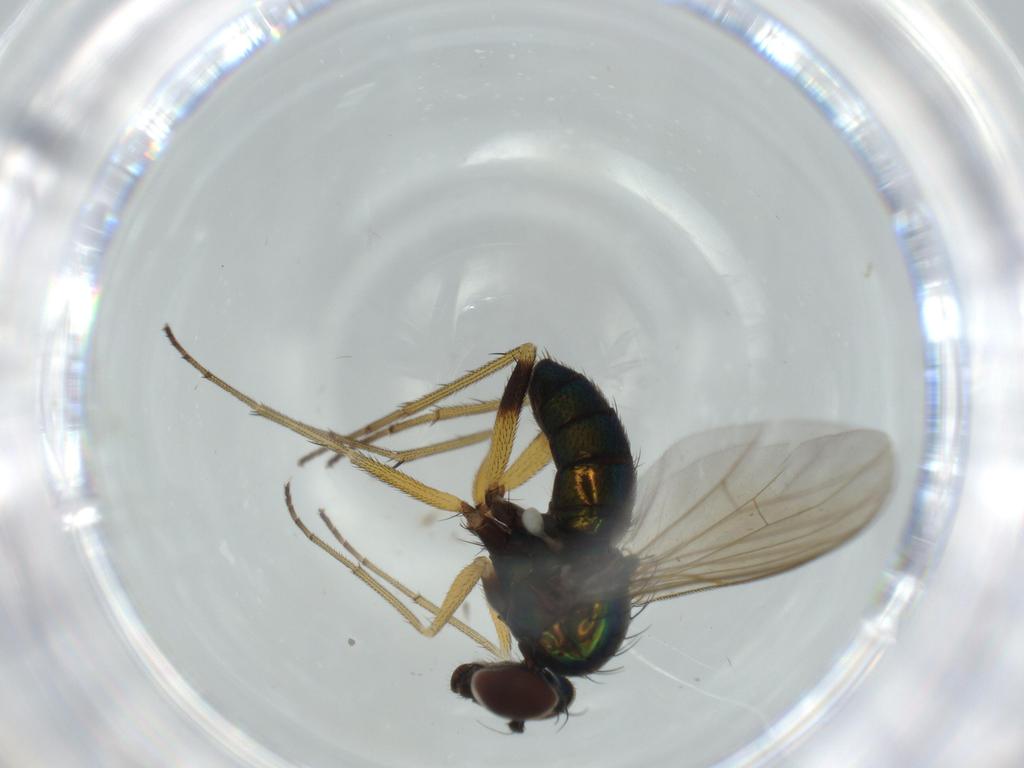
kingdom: Animalia
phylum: Arthropoda
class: Insecta
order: Diptera
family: Dolichopodidae
